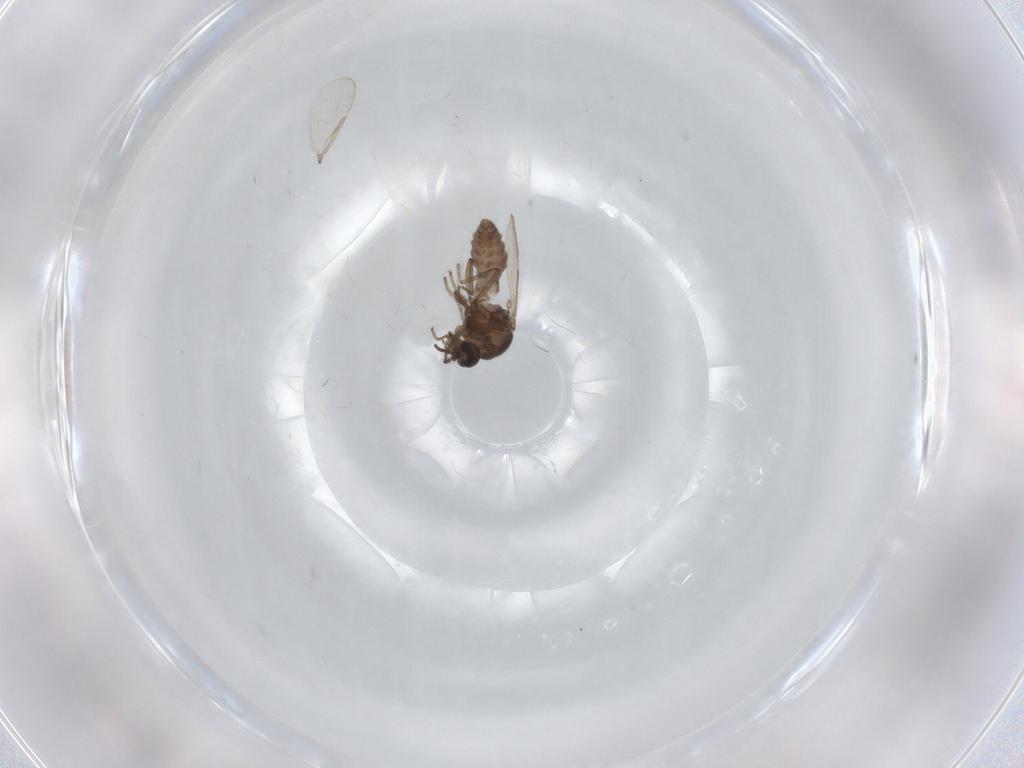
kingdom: Animalia
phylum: Arthropoda
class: Insecta
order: Diptera
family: Ceratopogonidae
